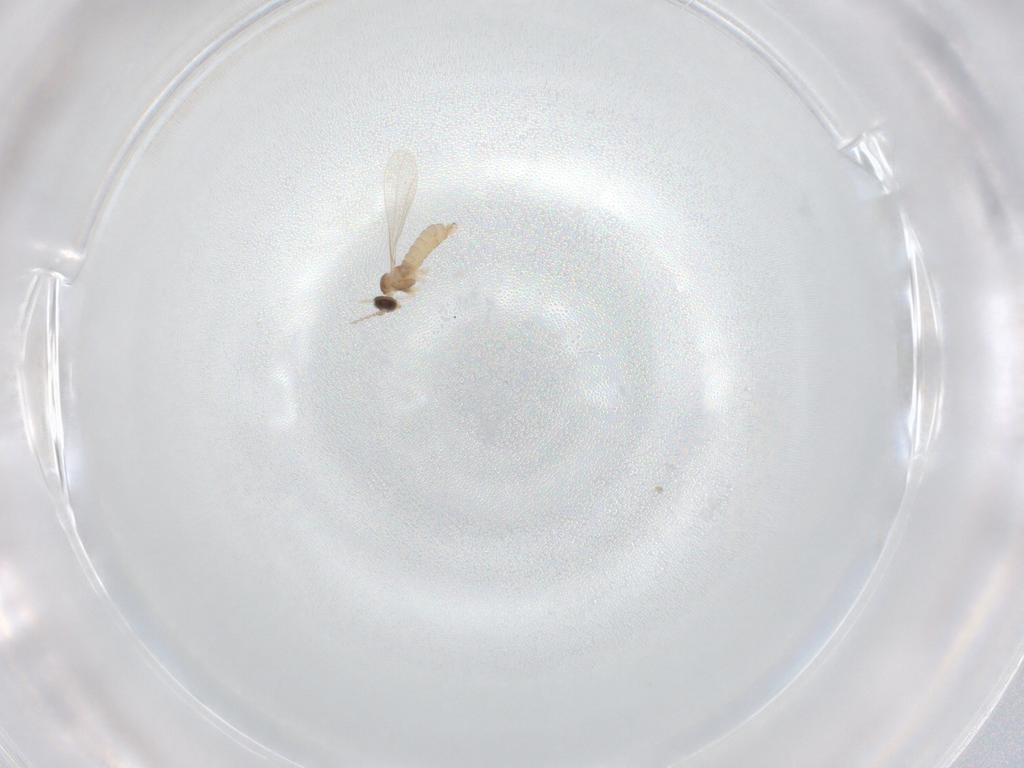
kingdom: Animalia
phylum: Arthropoda
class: Insecta
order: Diptera
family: Cecidomyiidae
